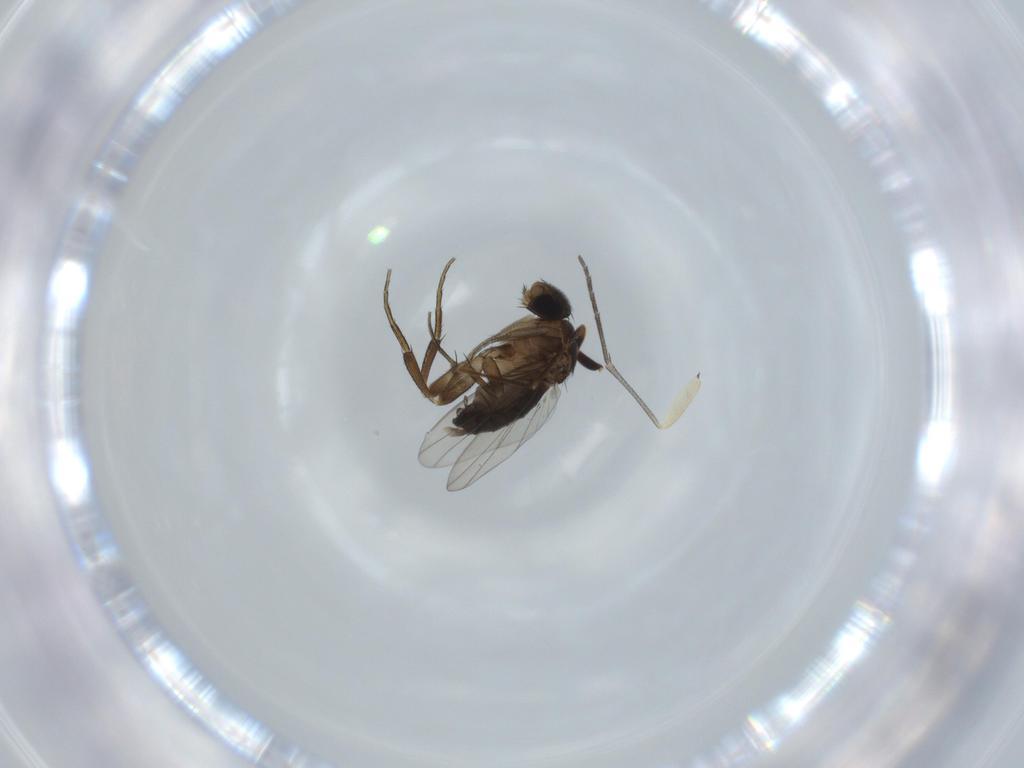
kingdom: Animalia
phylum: Arthropoda
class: Insecta
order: Diptera
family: Phoridae
